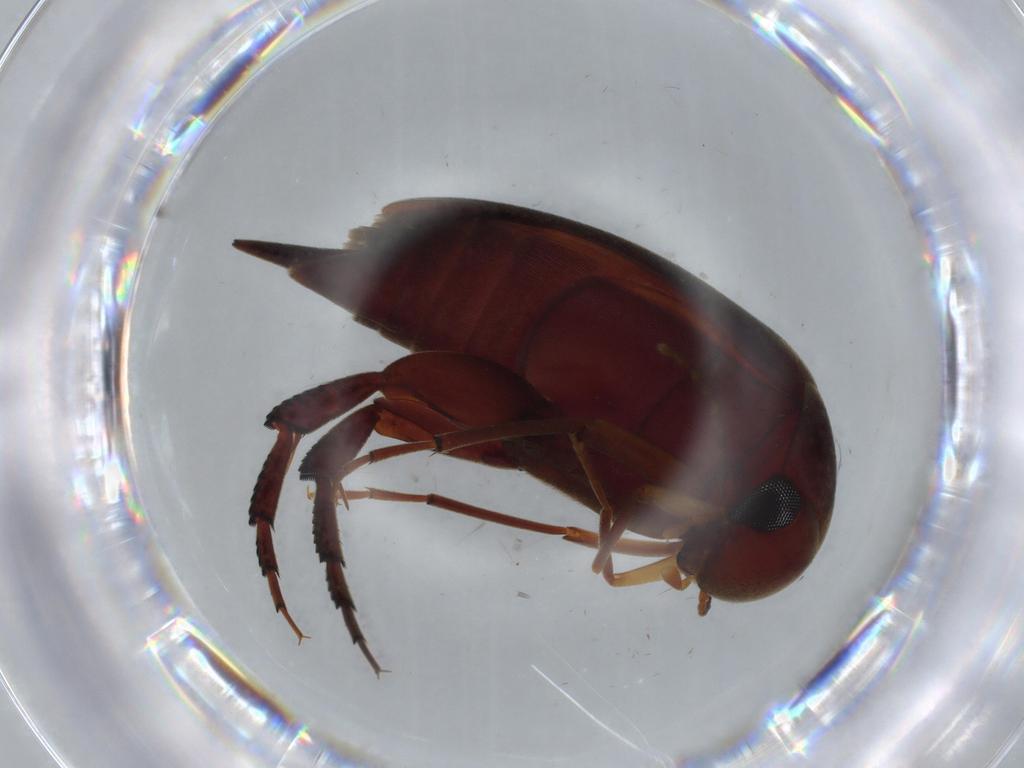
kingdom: Animalia
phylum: Arthropoda
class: Insecta
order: Coleoptera
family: Mordellidae
